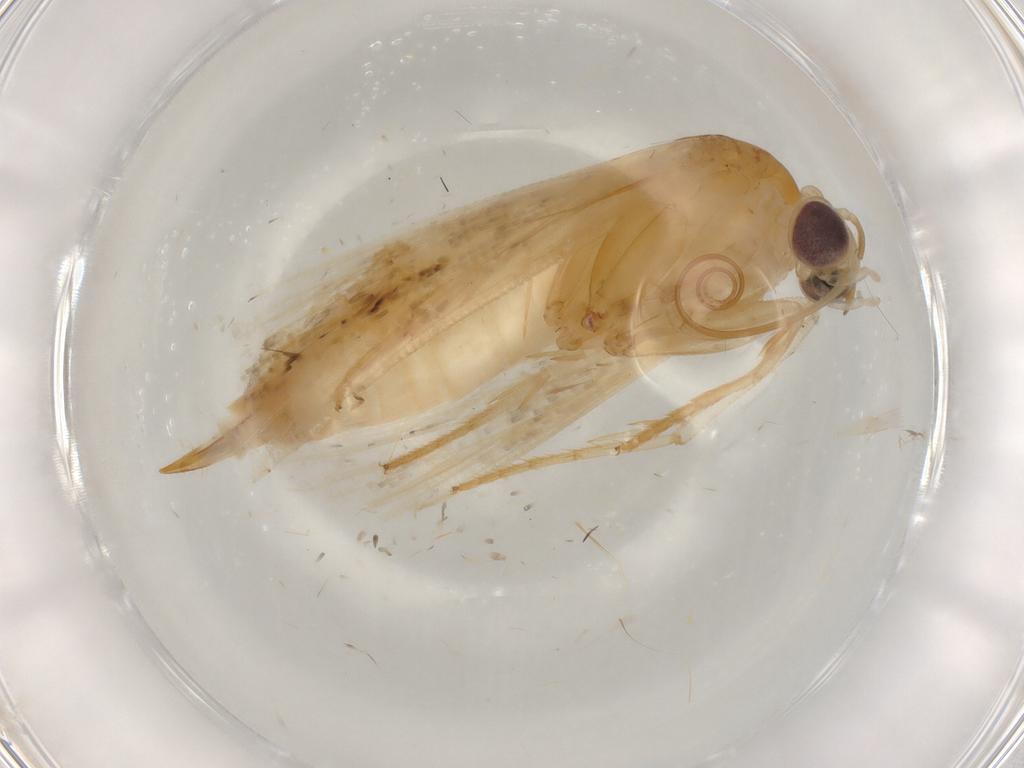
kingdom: Animalia
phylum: Arthropoda
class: Insecta
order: Lepidoptera
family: Noctuidae
